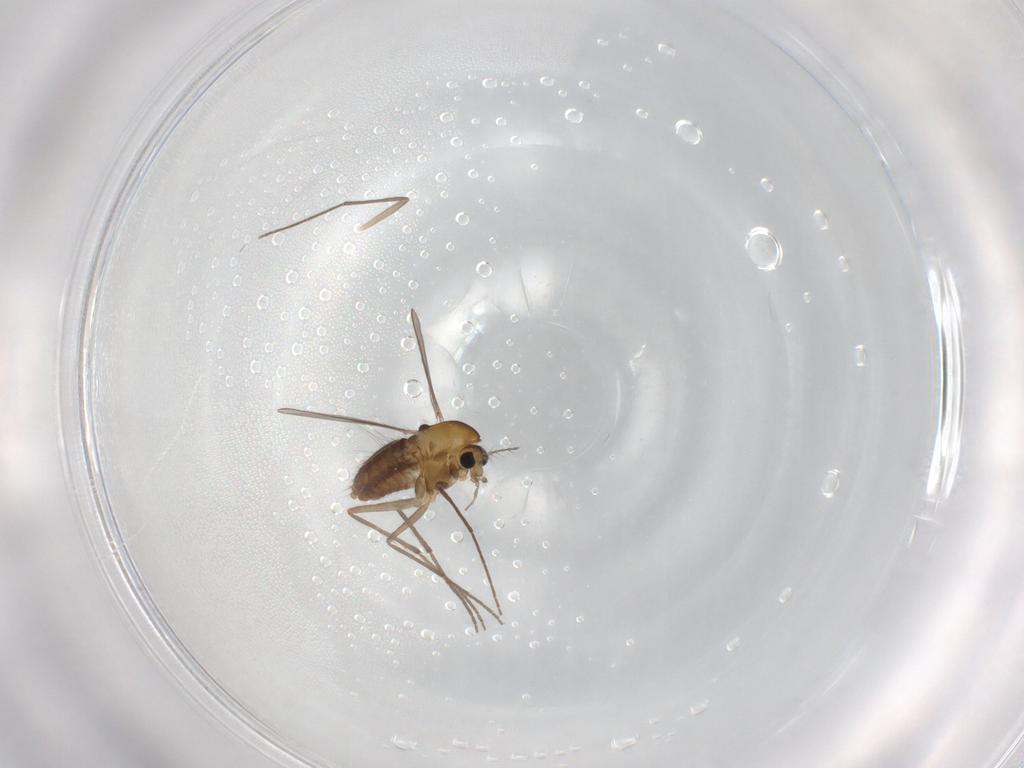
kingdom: Animalia
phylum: Arthropoda
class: Insecta
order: Diptera
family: Chironomidae
